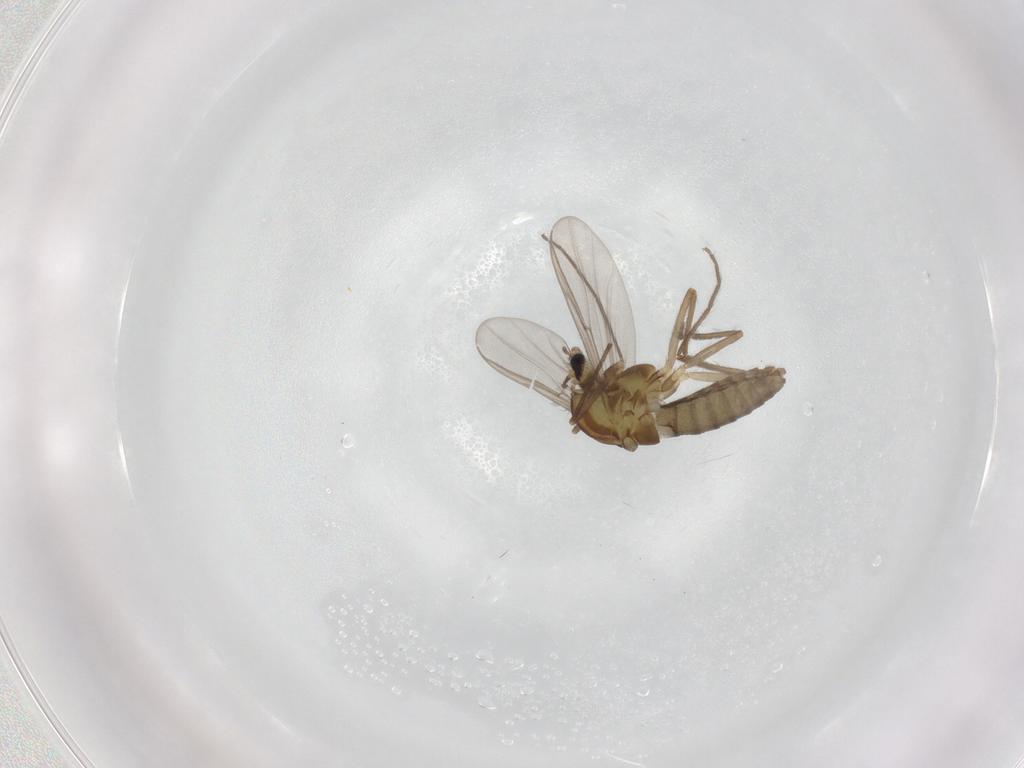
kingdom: Animalia
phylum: Arthropoda
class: Insecta
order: Diptera
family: Chironomidae
